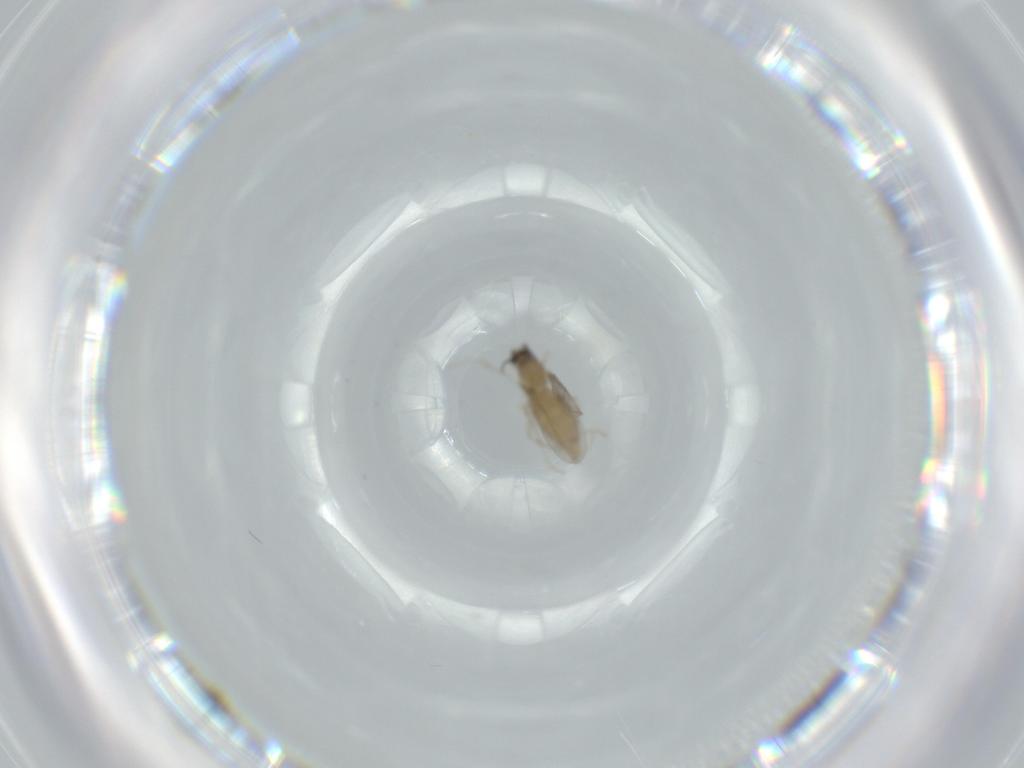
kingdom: Animalia
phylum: Arthropoda
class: Insecta
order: Diptera
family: Cecidomyiidae
